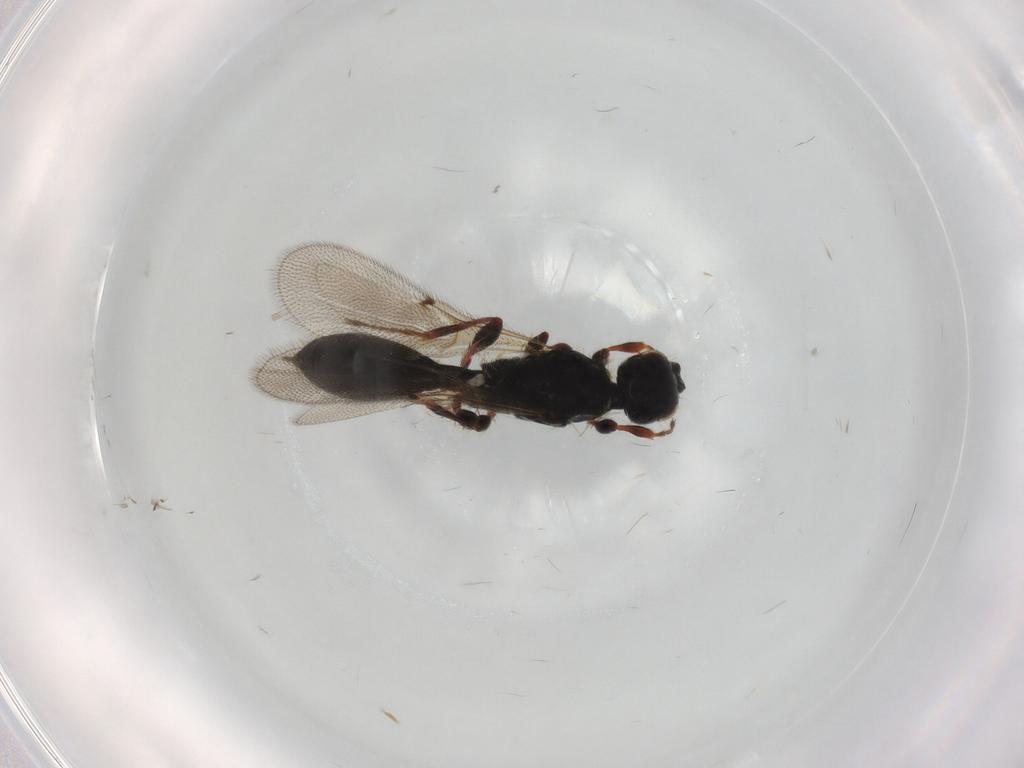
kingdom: Animalia
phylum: Arthropoda
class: Insecta
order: Hymenoptera
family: Diapriidae
